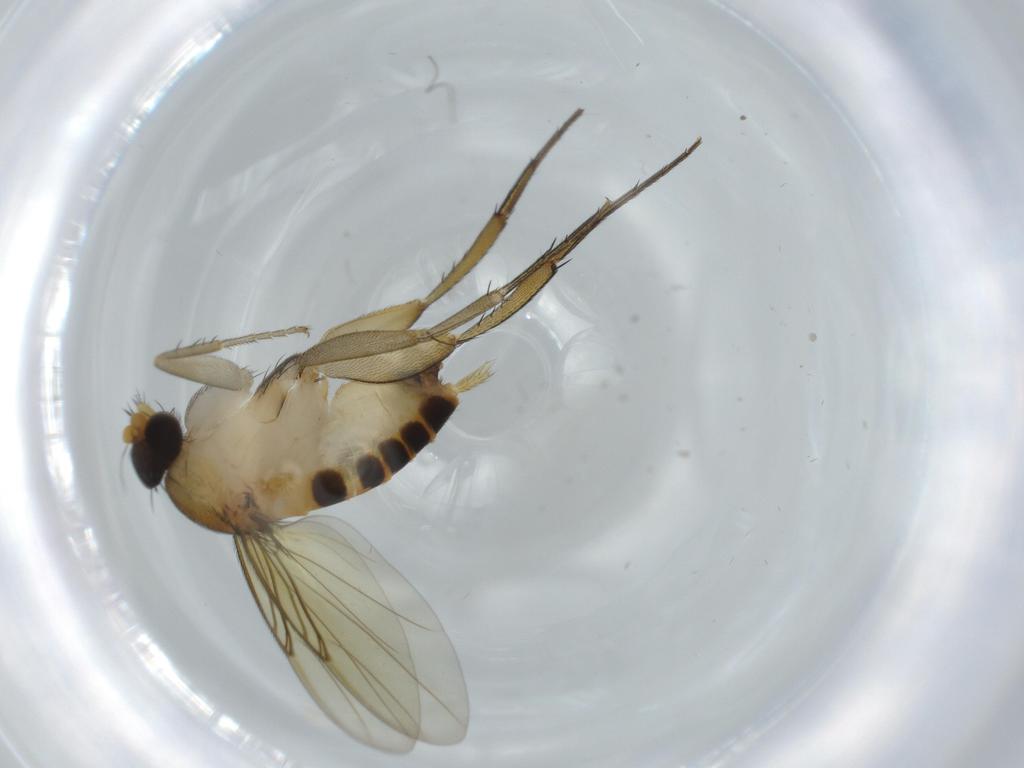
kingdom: Animalia
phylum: Arthropoda
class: Insecta
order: Diptera
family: Phoridae
